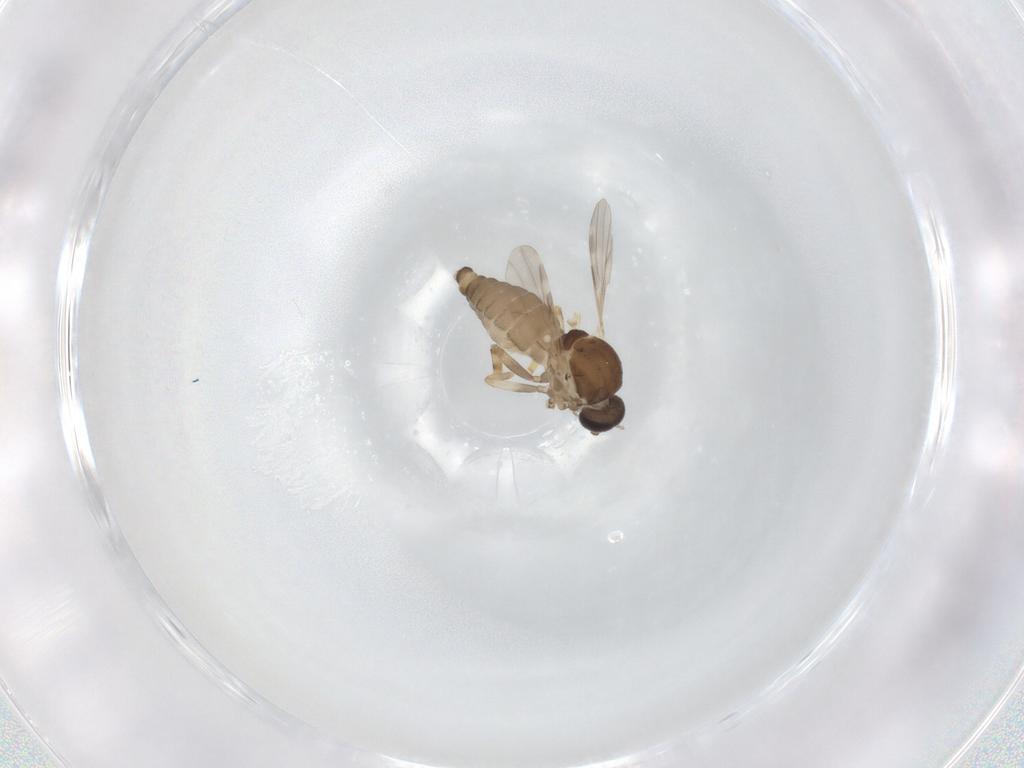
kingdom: Animalia
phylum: Arthropoda
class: Insecta
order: Diptera
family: Ceratopogonidae
